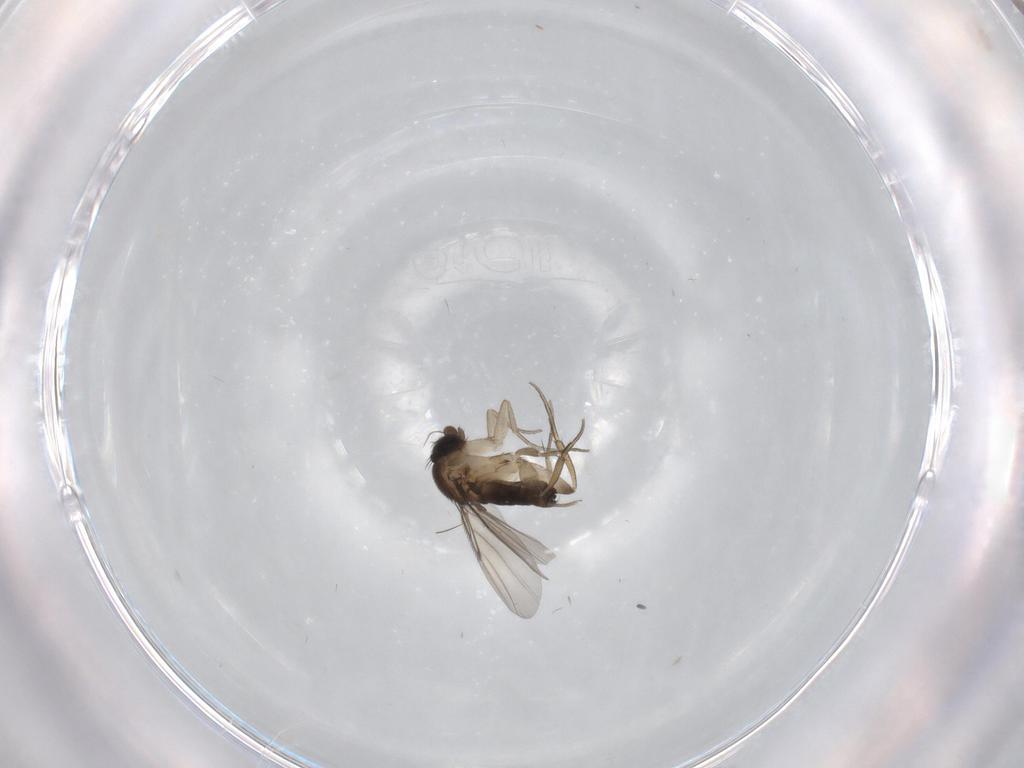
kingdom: Animalia
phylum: Arthropoda
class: Insecta
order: Diptera
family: Phoridae
